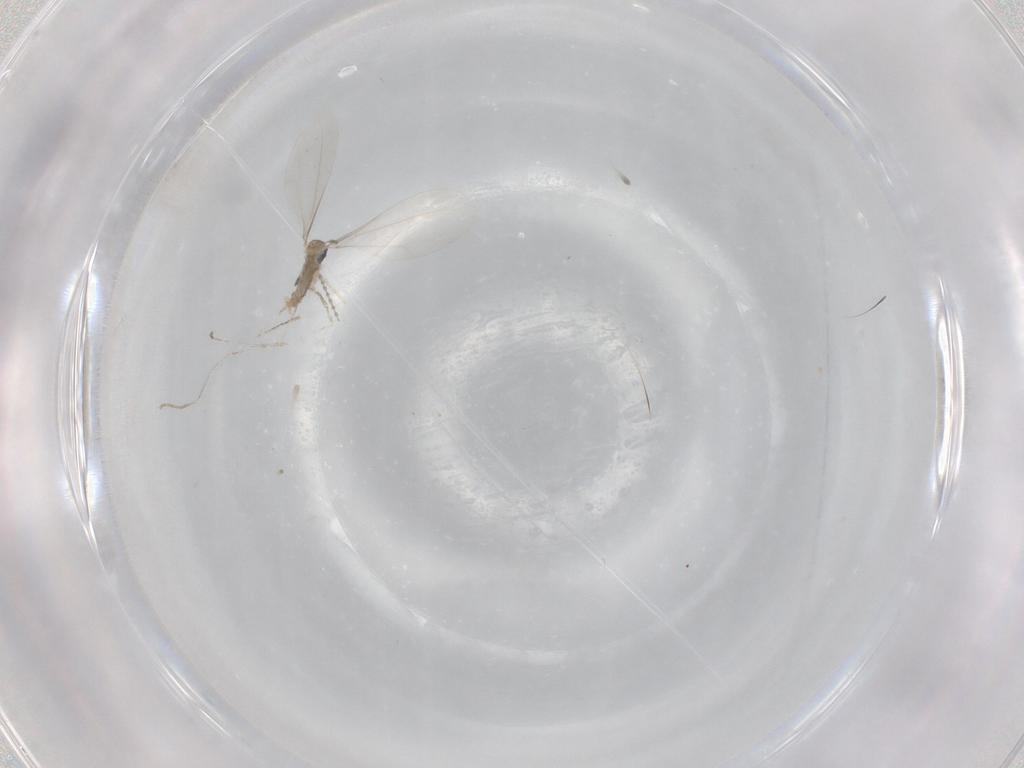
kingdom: Animalia
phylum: Arthropoda
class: Insecta
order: Diptera
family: Cecidomyiidae
